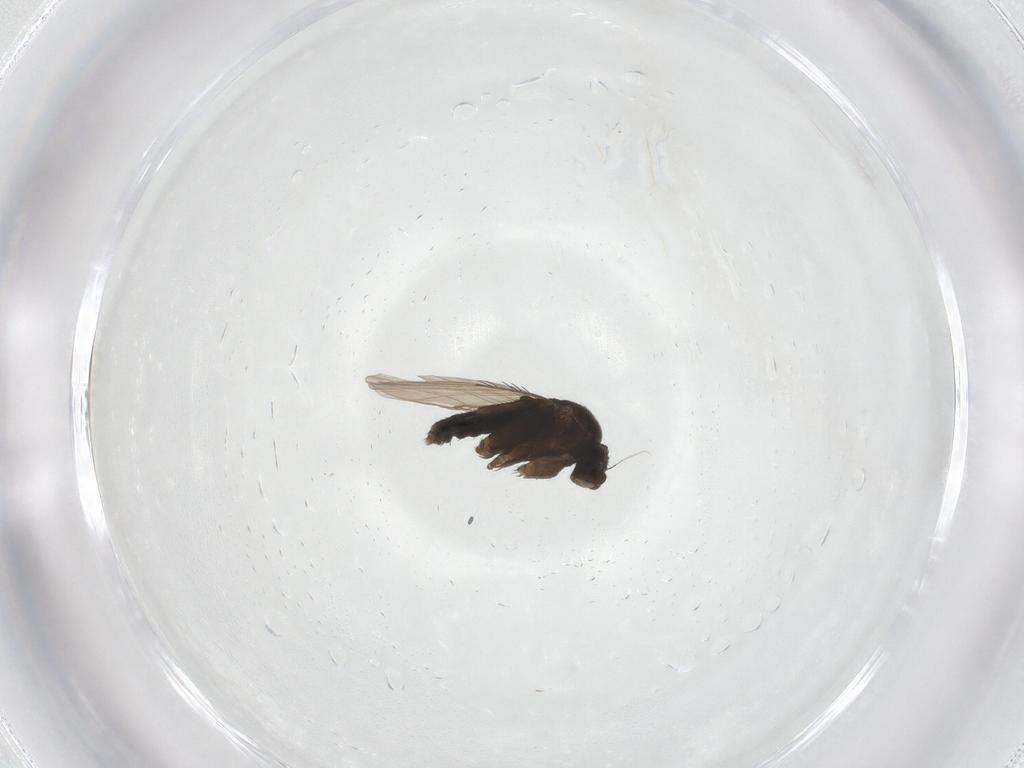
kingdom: Animalia
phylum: Arthropoda
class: Insecta
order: Diptera
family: Phoridae
